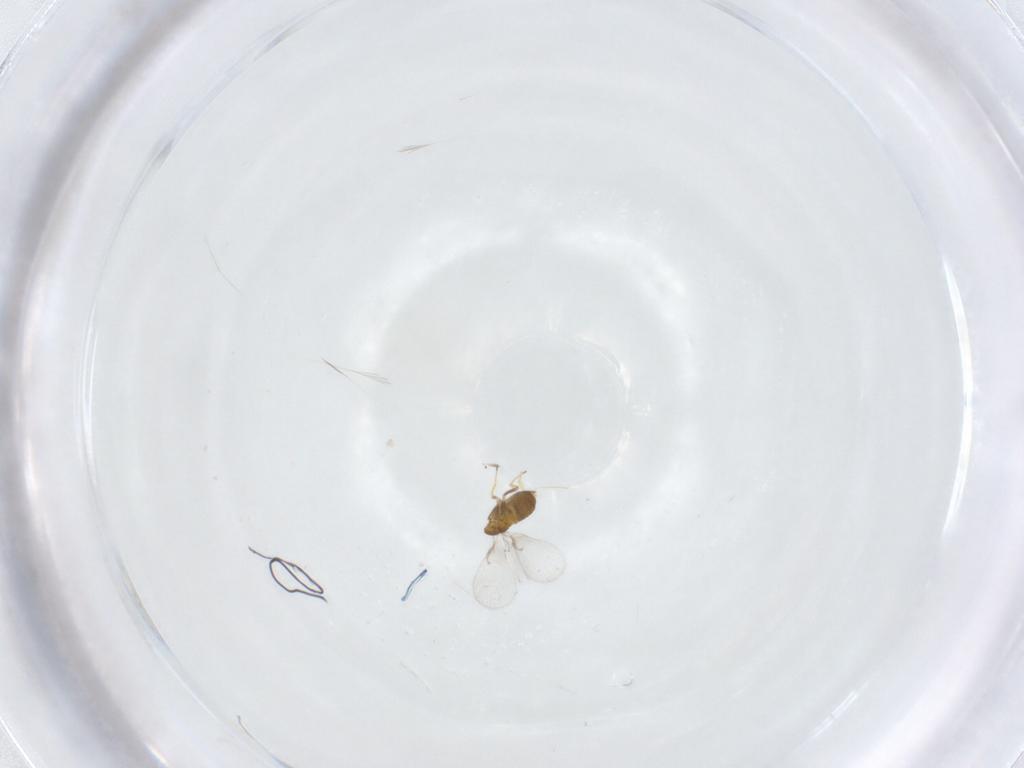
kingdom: Animalia
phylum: Arthropoda
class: Insecta
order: Hymenoptera
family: Trichogrammatidae
